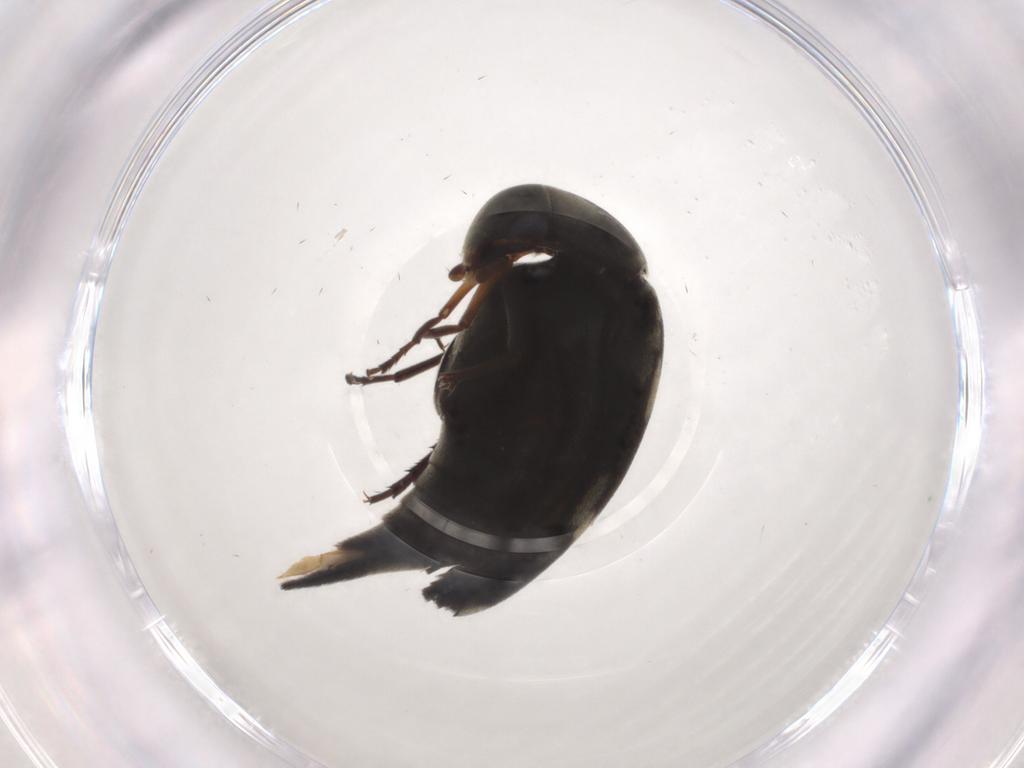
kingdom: Animalia
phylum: Arthropoda
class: Insecta
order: Coleoptera
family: Mordellidae
